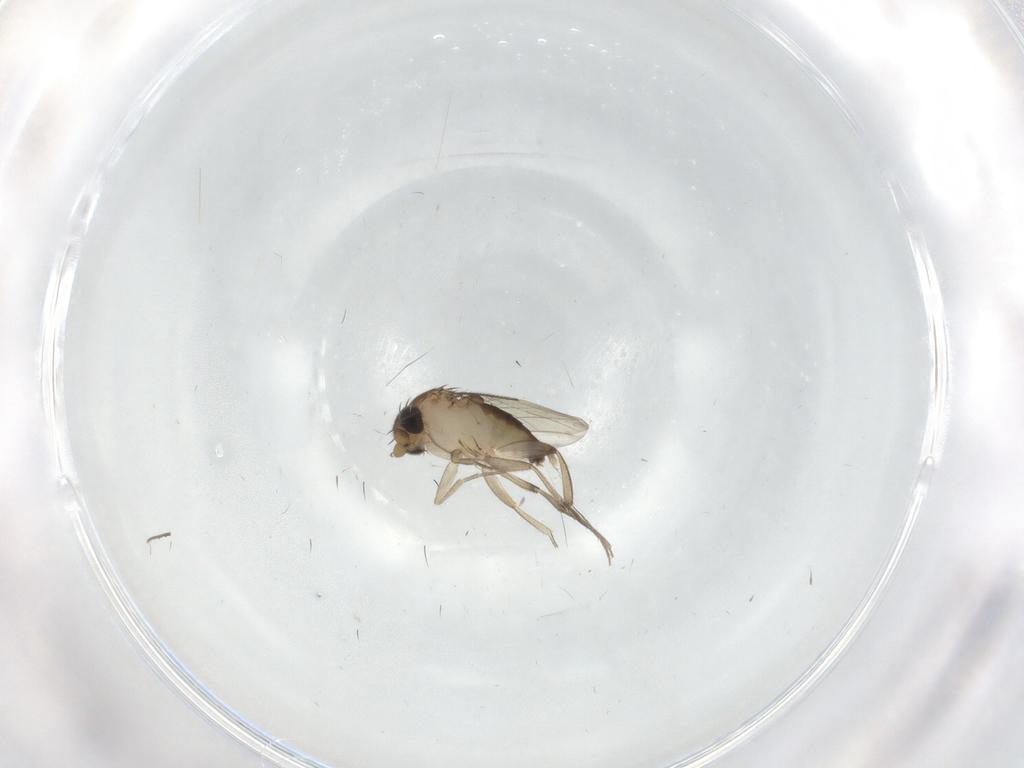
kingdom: Animalia
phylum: Arthropoda
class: Insecta
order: Diptera
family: Phoridae
